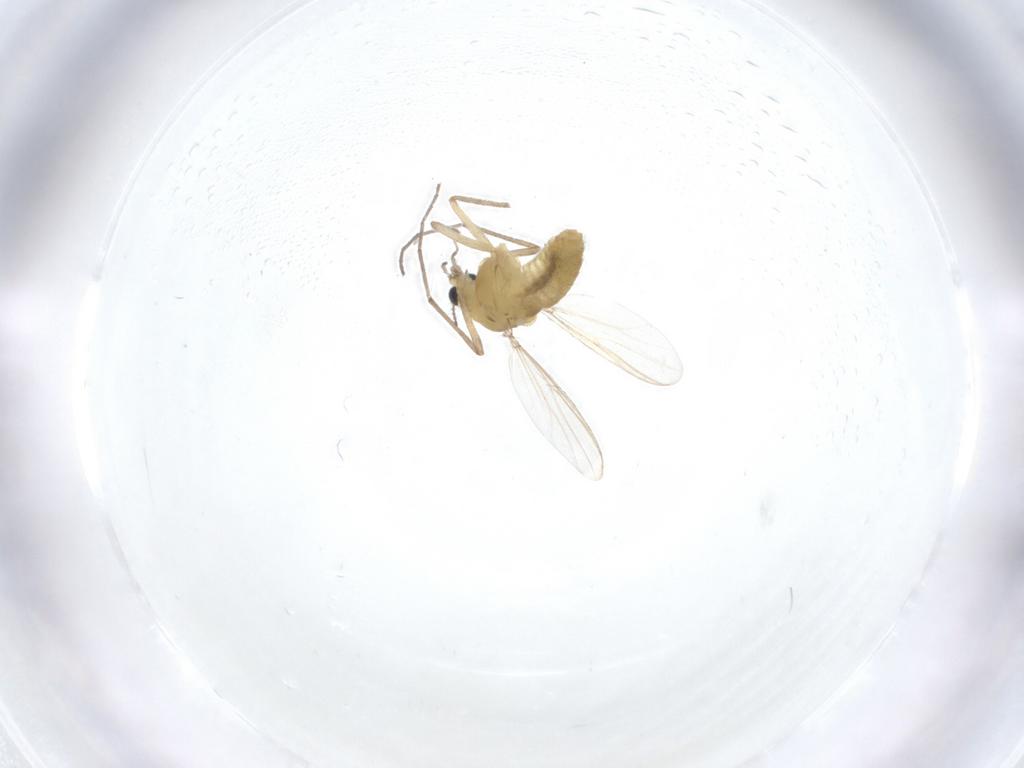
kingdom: Animalia
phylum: Arthropoda
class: Insecta
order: Diptera
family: Chironomidae
